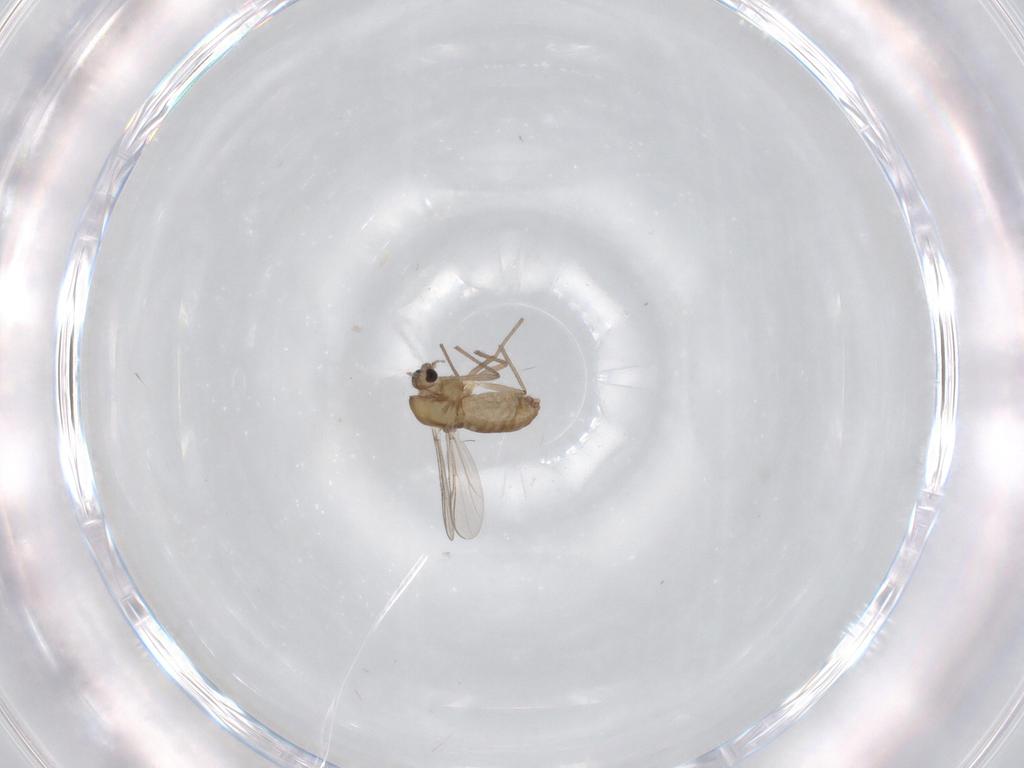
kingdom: Animalia
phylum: Arthropoda
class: Insecta
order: Diptera
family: Chironomidae
